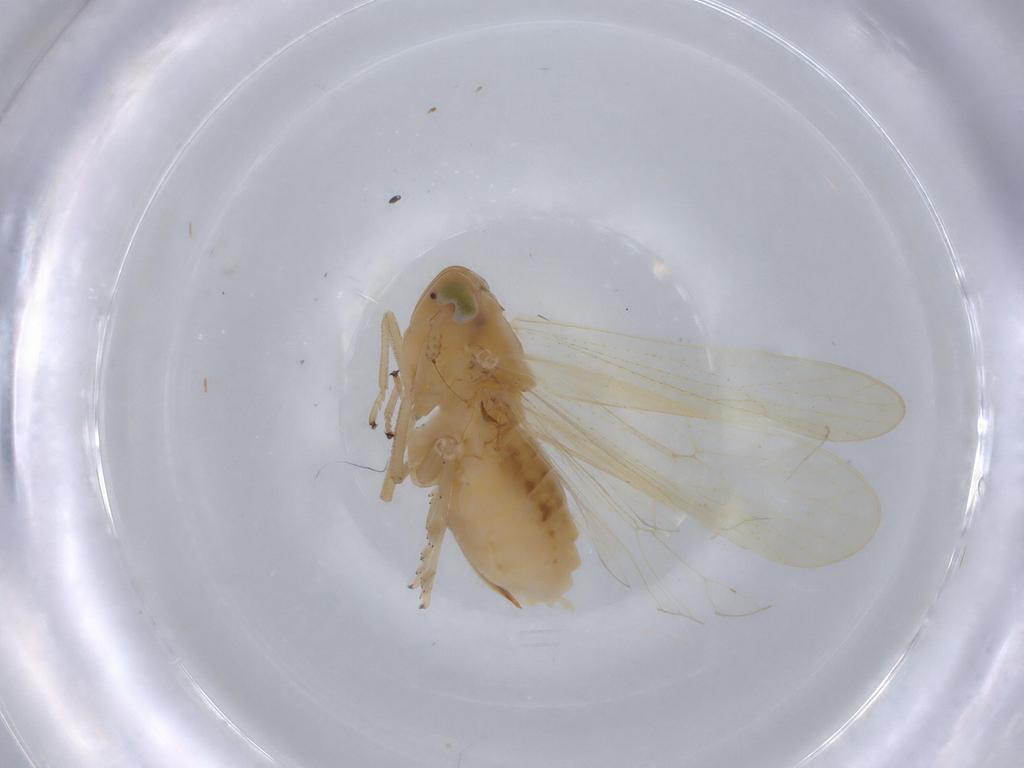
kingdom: Animalia
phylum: Arthropoda
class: Insecta
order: Hemiptera
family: Delphacidae
